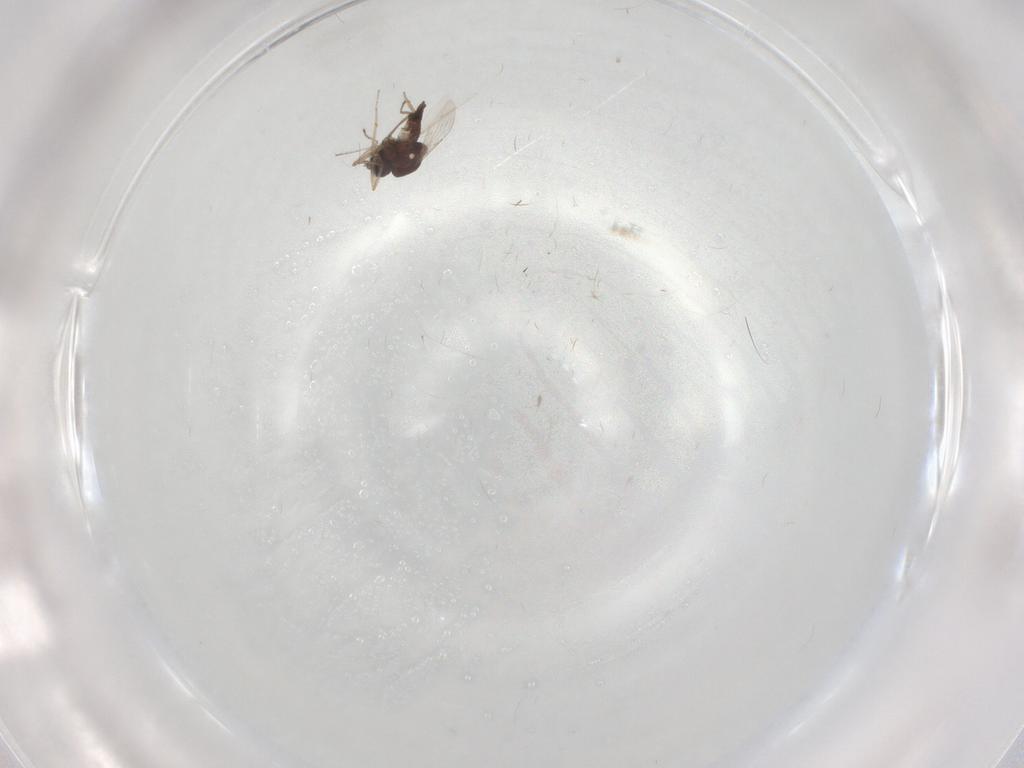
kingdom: Animalia
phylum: Arthropoda
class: Insecta
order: Diptera
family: Ceratopogonidae
